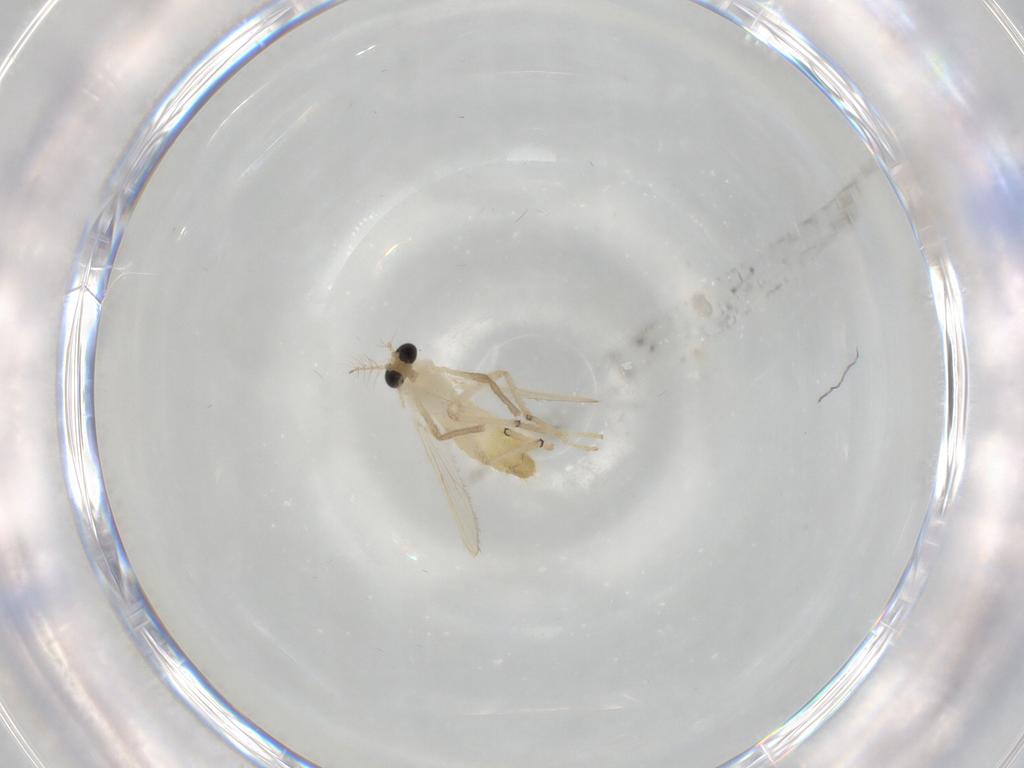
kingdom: Animalia
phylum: Arthropoda
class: Insecta
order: Diptera
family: Chironomidae
